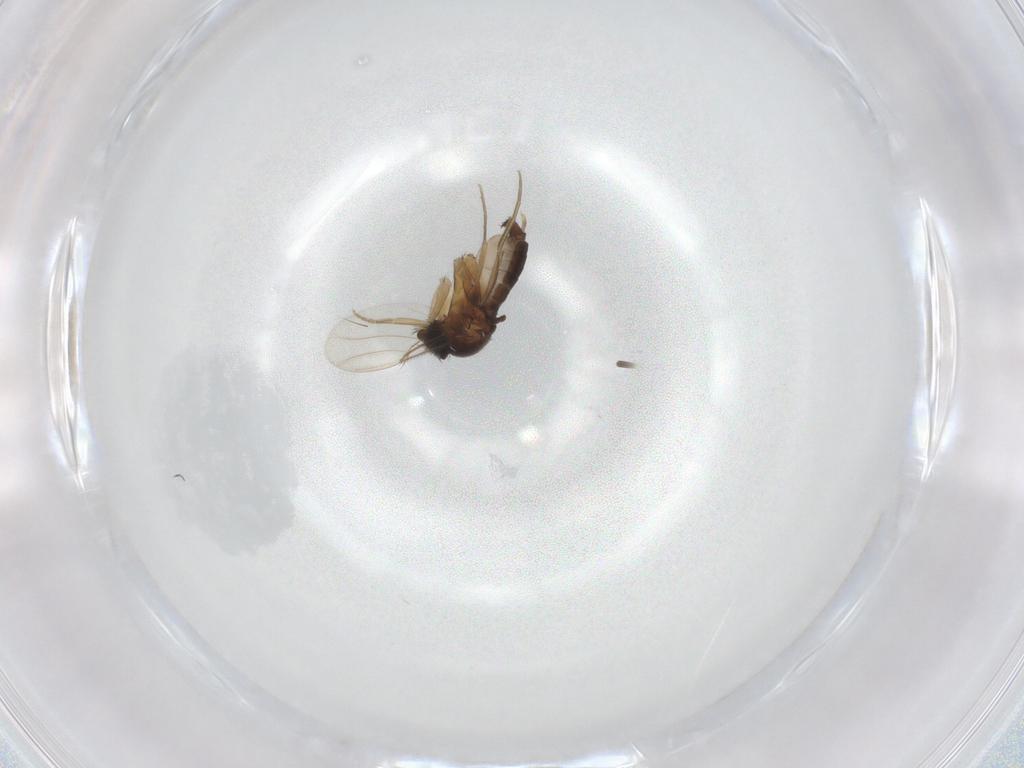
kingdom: Animalia
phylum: Arthropoda
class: Insecta
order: Diptera
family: Phoridae
